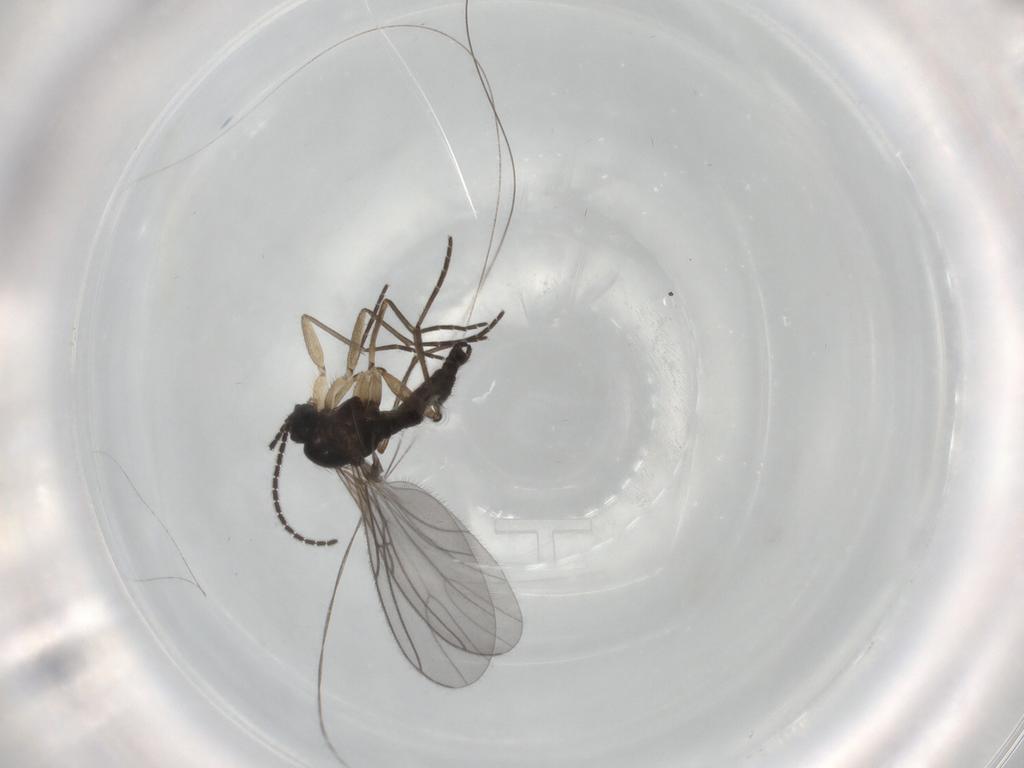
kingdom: Animalia
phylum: Arthropoda
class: Insecta
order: Diptera
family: Sciaridae
